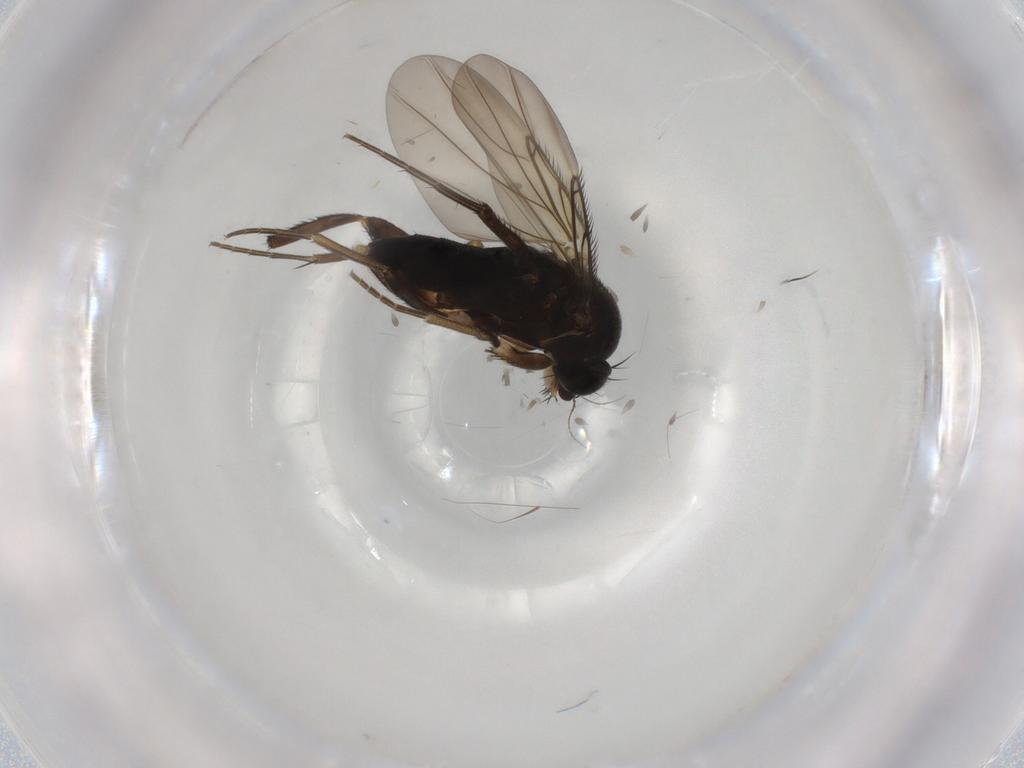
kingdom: Animalia
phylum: Arthropoda
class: Insecta
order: Diptera
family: Phoridae
